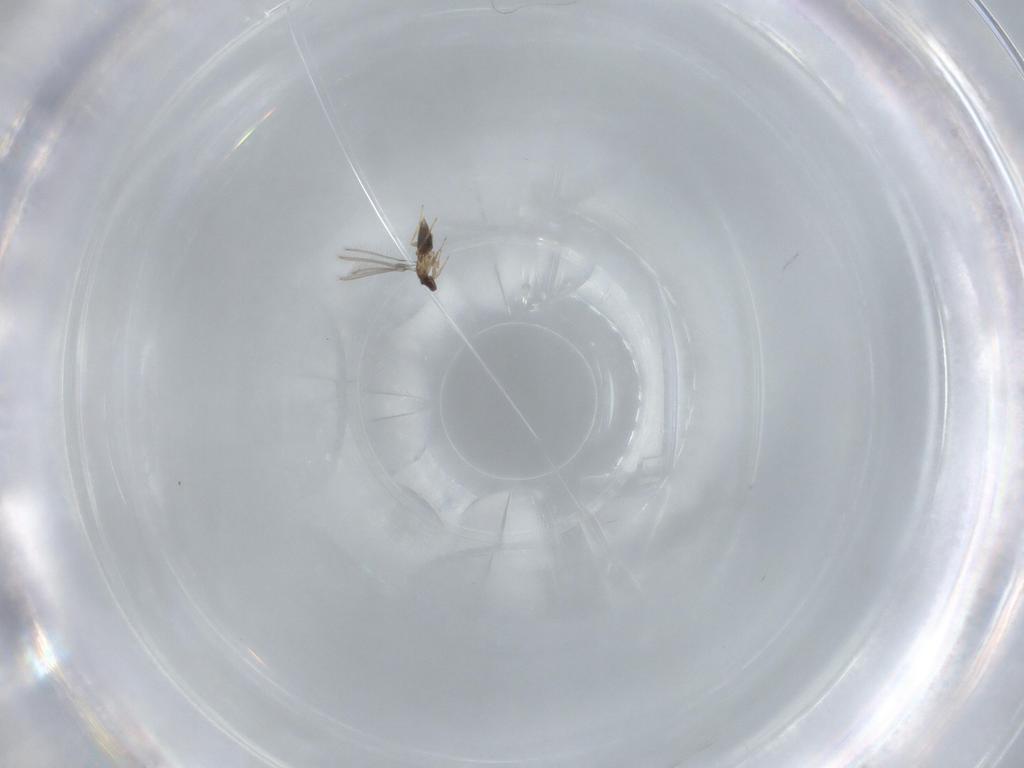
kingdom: Animalia
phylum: Arthropoda
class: Insecta
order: Hymenoptera
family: Mymaridae
